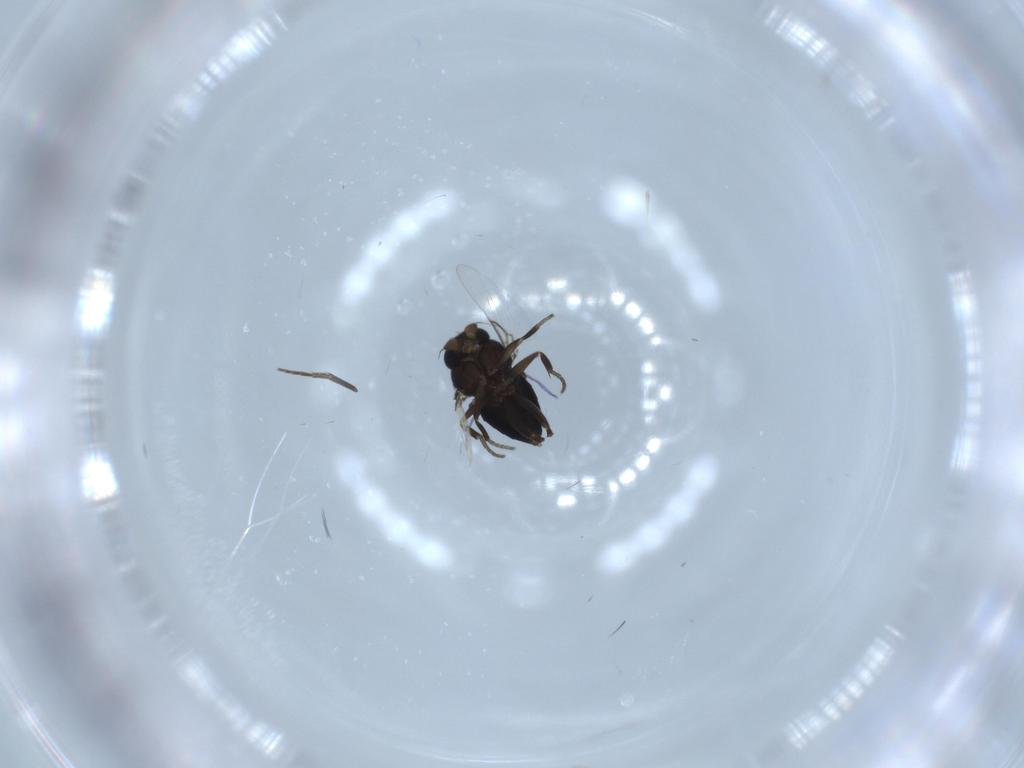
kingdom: Animalia
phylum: Arthropoda
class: Insecta
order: Diptera
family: Phoridae
